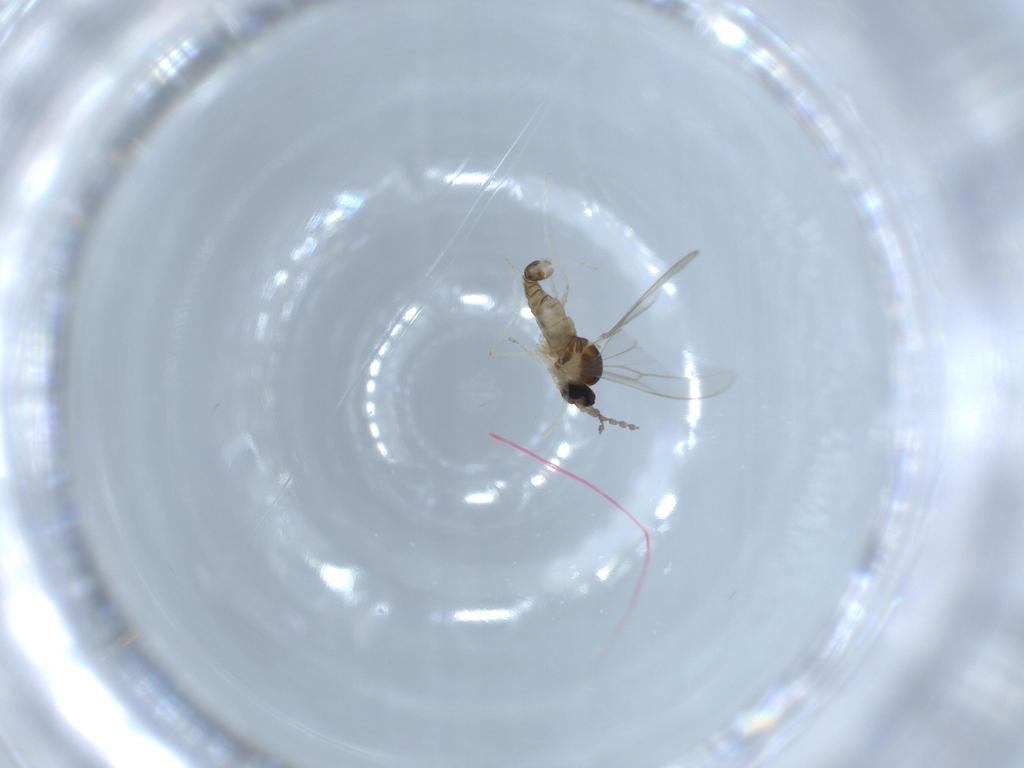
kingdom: Animalia
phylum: Arthropoda
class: Insecta
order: Diptera
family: Cecidomyiidae
